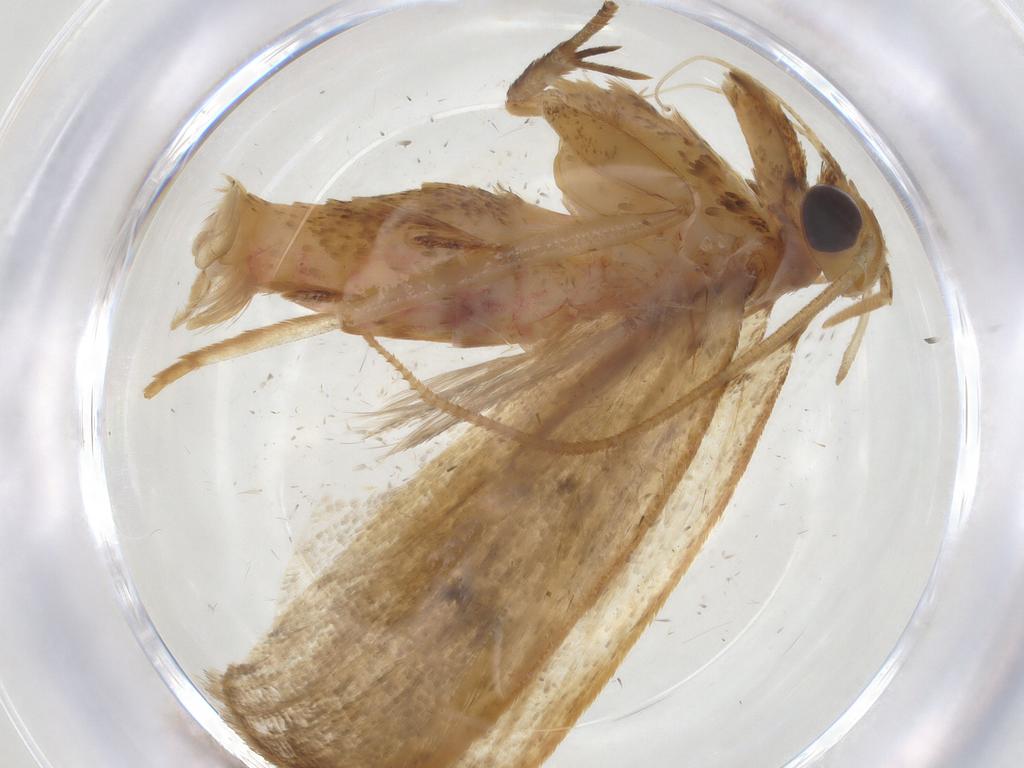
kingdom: Animalia
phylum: Arthropoda
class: Insecta
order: Lepidoptera
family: Oecophoridae
